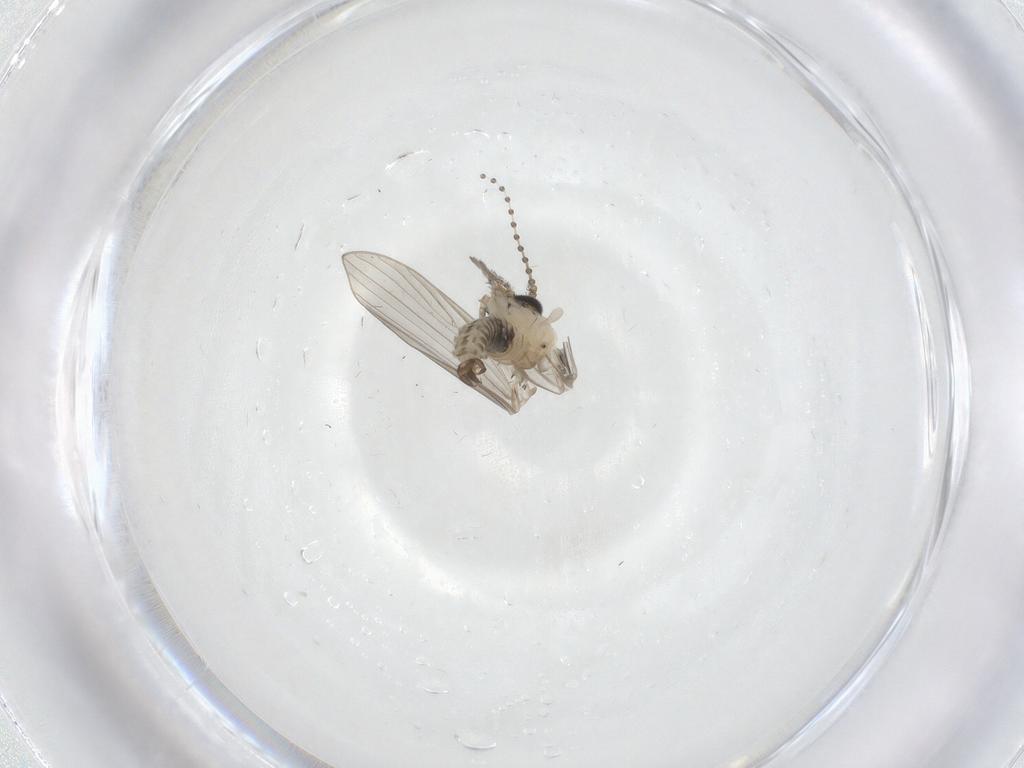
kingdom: Animalia
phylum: Arthropoda
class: Insecta
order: Diptera
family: Psychodidae
